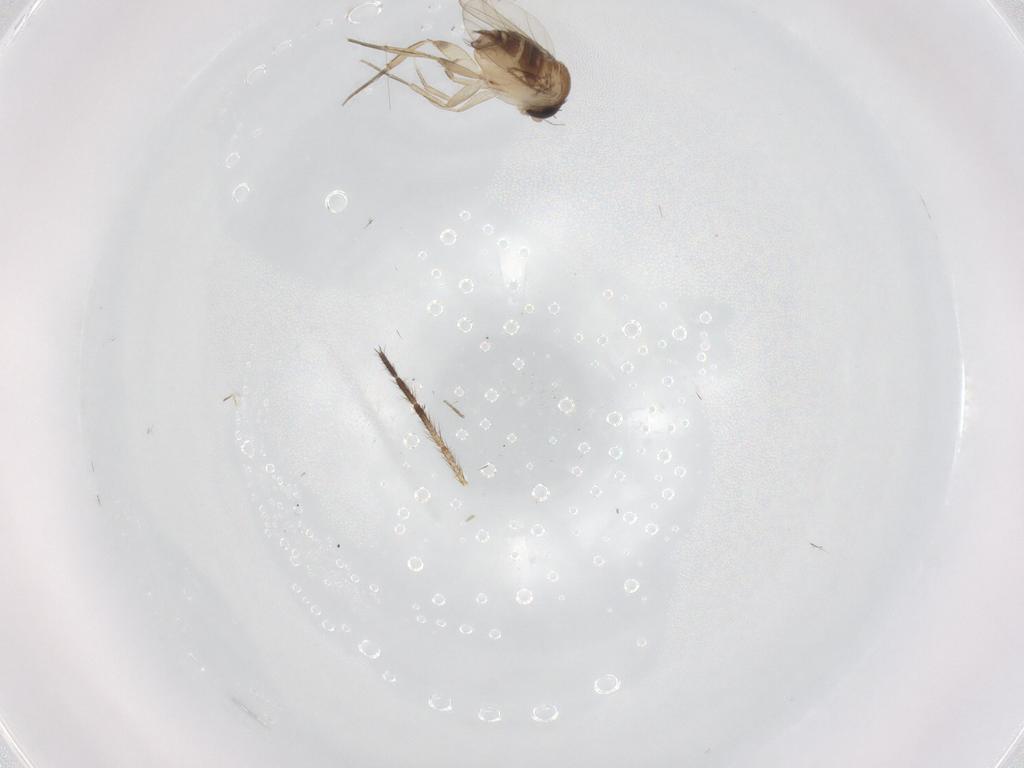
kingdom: Animalia
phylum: Arthropoda
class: Insecta
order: Diptera
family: Phoridae
